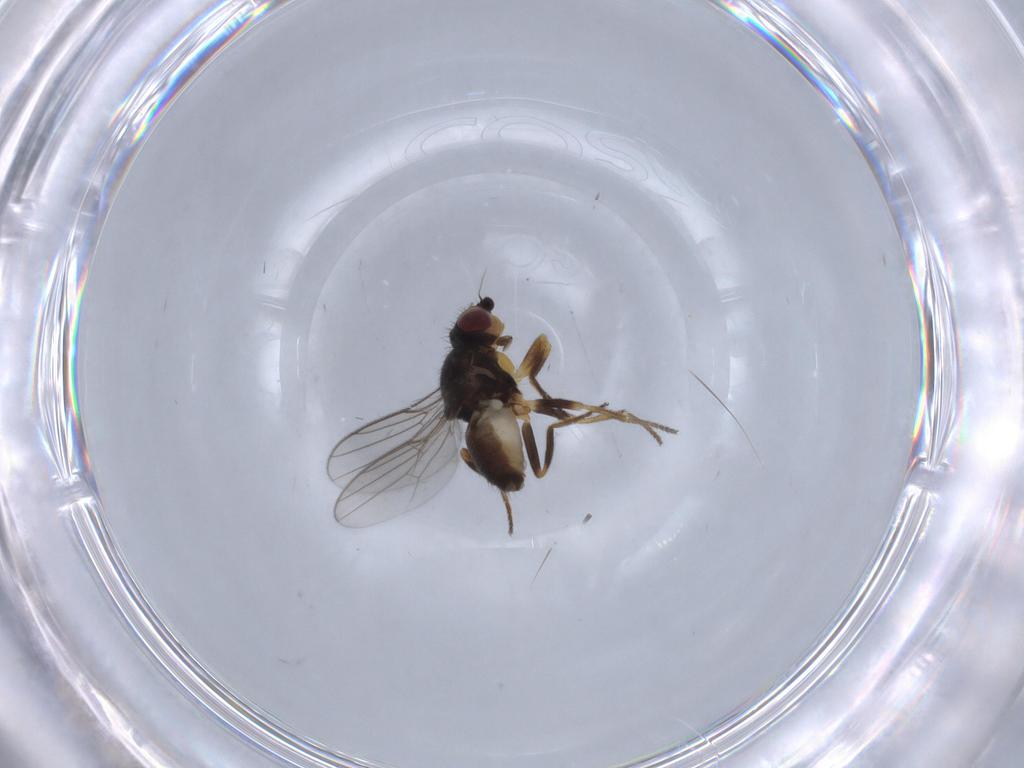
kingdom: Animalia
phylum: Arthropoda
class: Insecta
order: Diptera
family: Chloropidae
